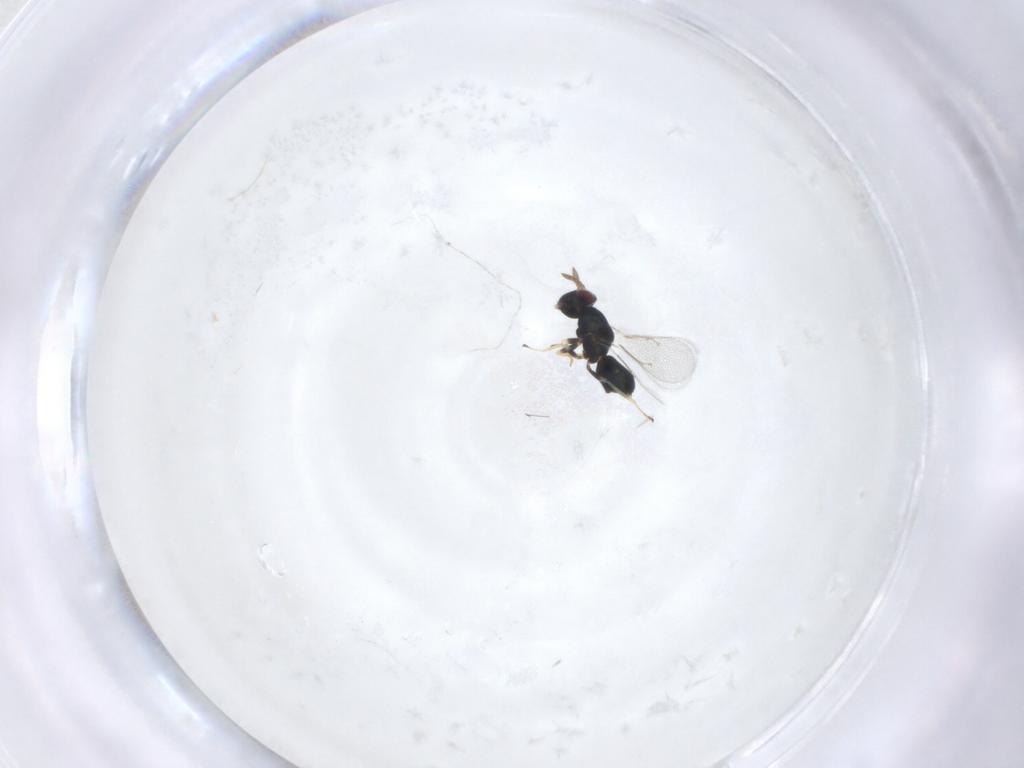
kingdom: Animalia
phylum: Arthropoda
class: Insecta
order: Hymenoptera
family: Eulophidae
